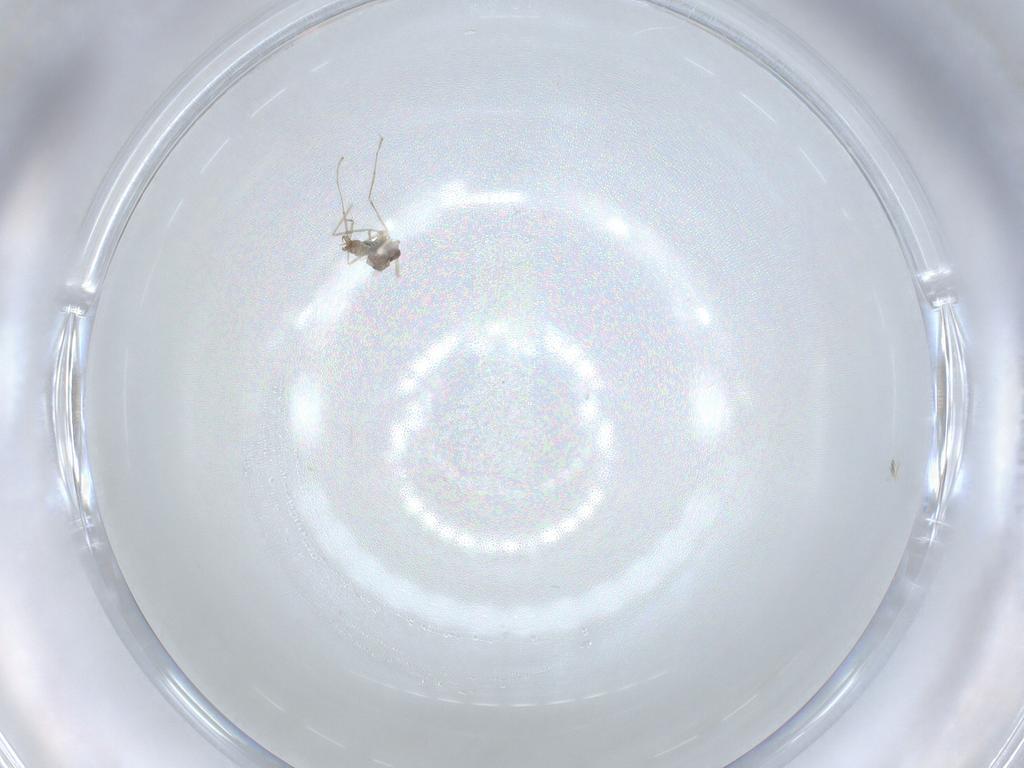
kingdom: Animalia
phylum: Arthropoda
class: Insecta
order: Diptera
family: Cecidomyiidae
